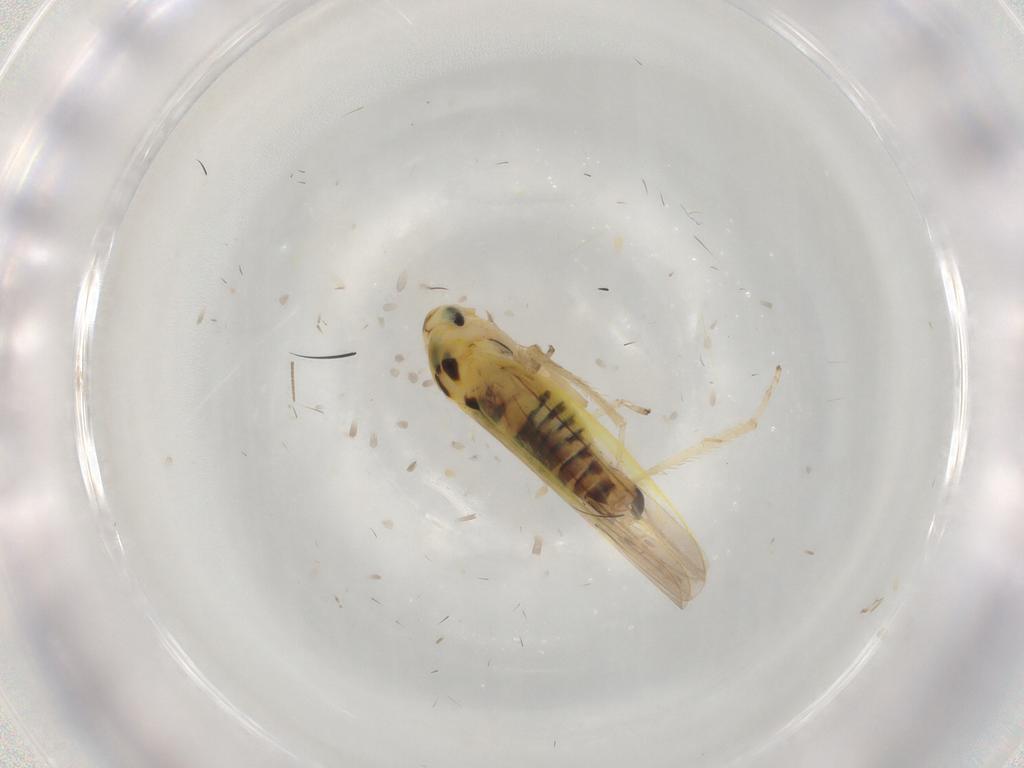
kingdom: Animalia
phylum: Arthropoda
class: Insecta
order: Hemiptera
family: Cicadellidae
